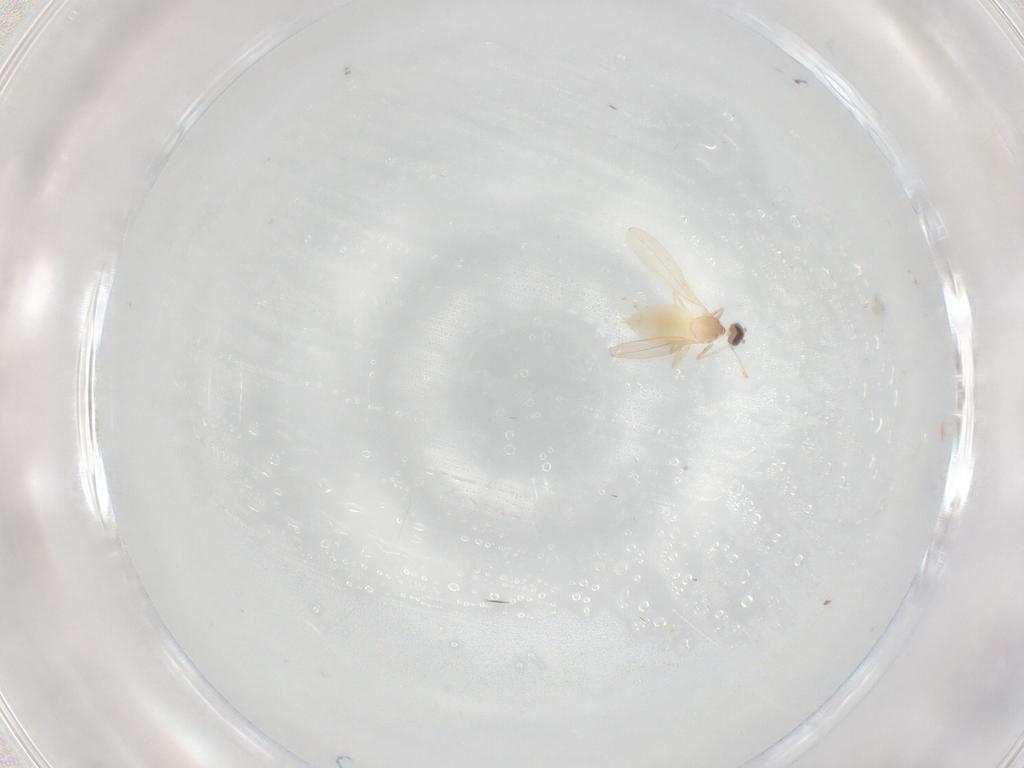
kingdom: Animalia
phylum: Arthropoda
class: Insecta
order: Diptera
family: Cecidomyiidae
